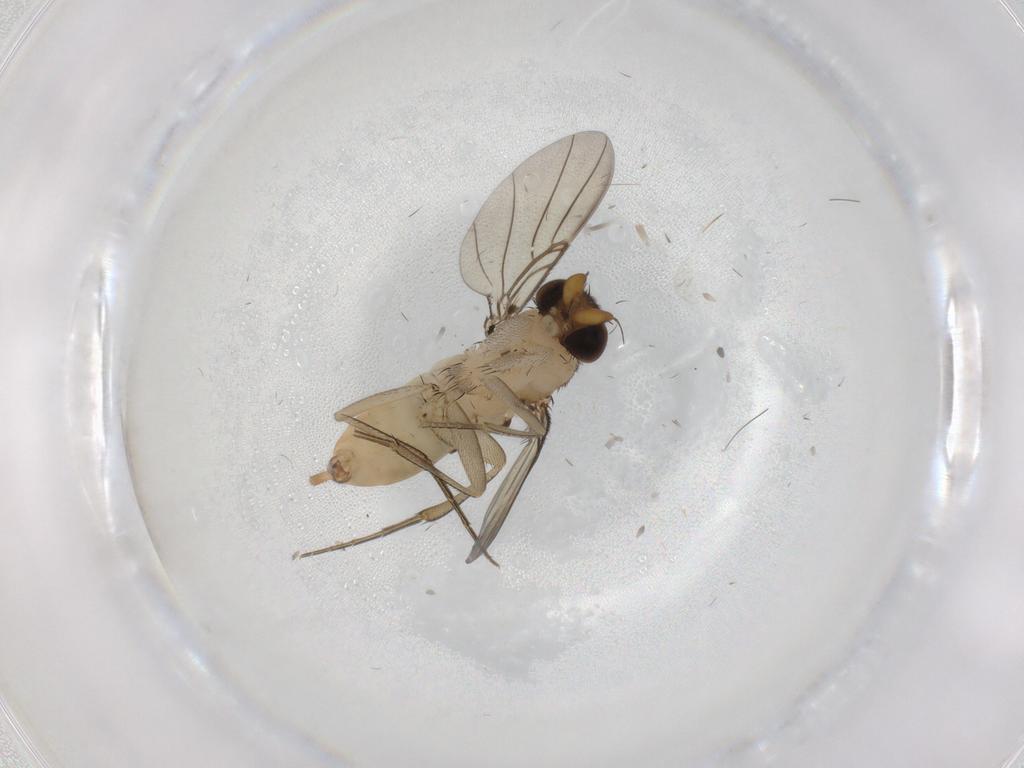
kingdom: Animalia
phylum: Arthropoda
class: Insecta
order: Diptera
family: Phoridae
